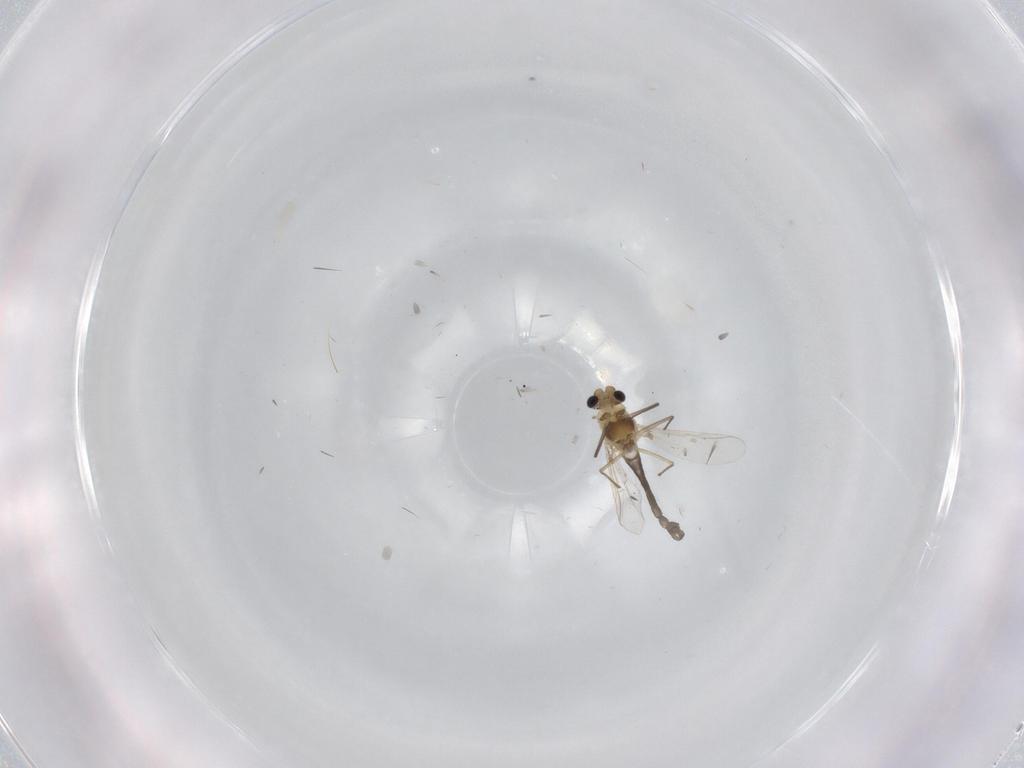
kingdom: Animalia
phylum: Arthropoda
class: Insecta
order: Diptera
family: Chironomidae
